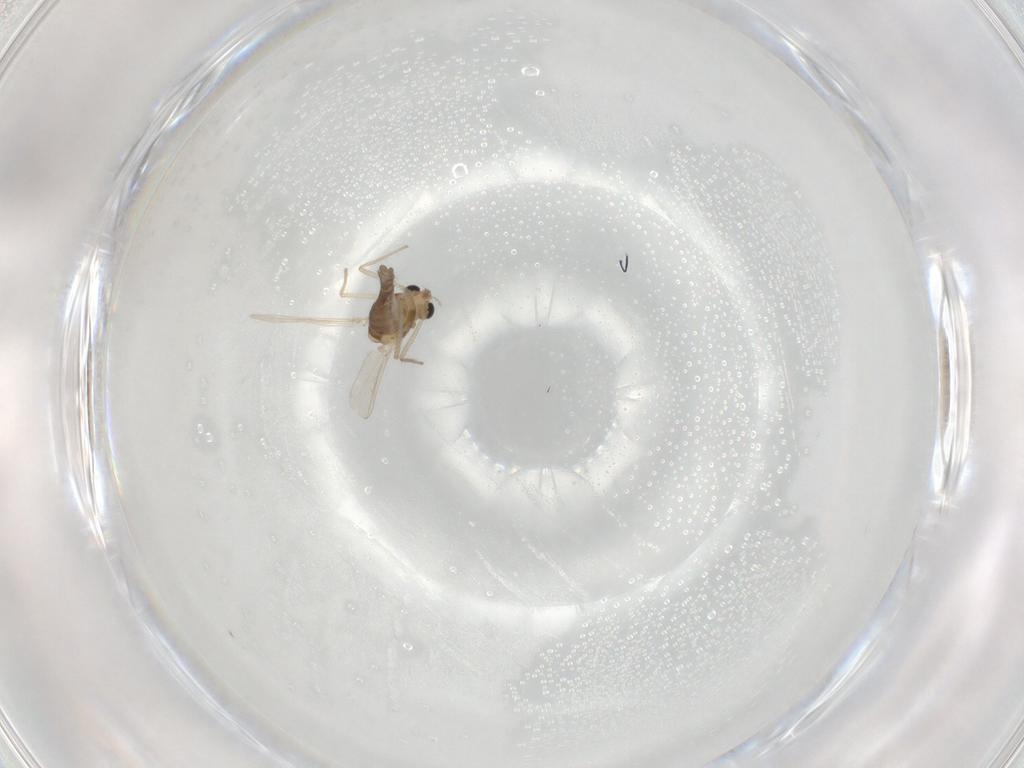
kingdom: Animalia
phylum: Arthropoda
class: Insecta
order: Diptera
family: Chironomidae
